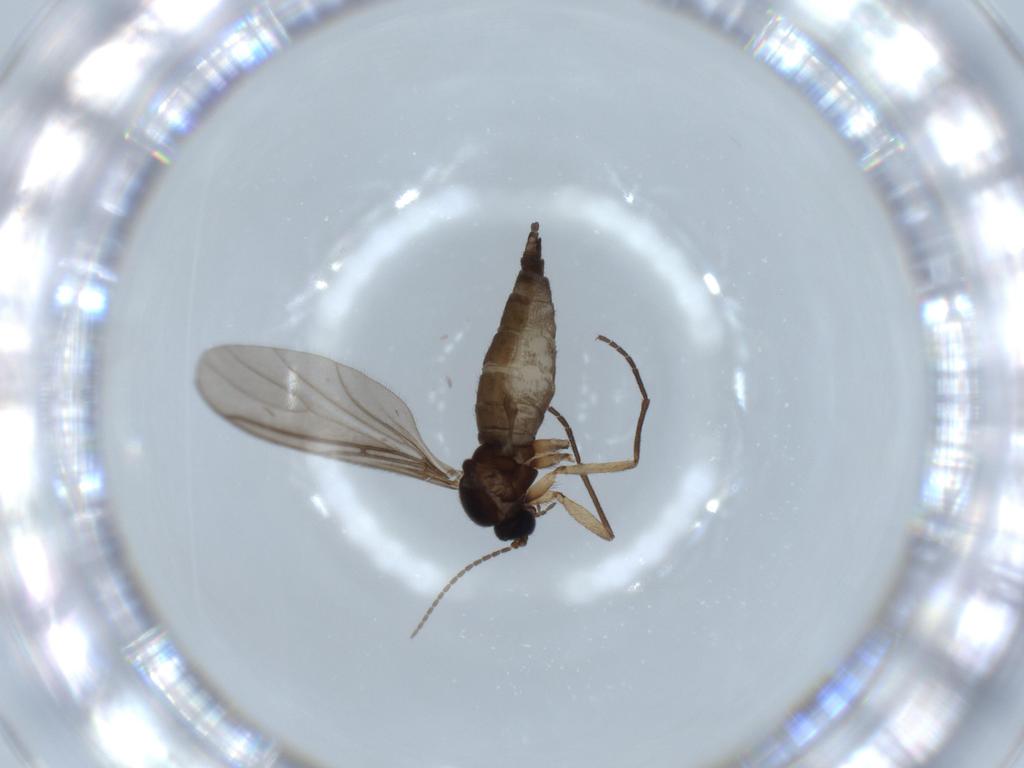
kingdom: Animalia
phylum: Arthropoda
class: Insecta
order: Diptera
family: Sciaridae
